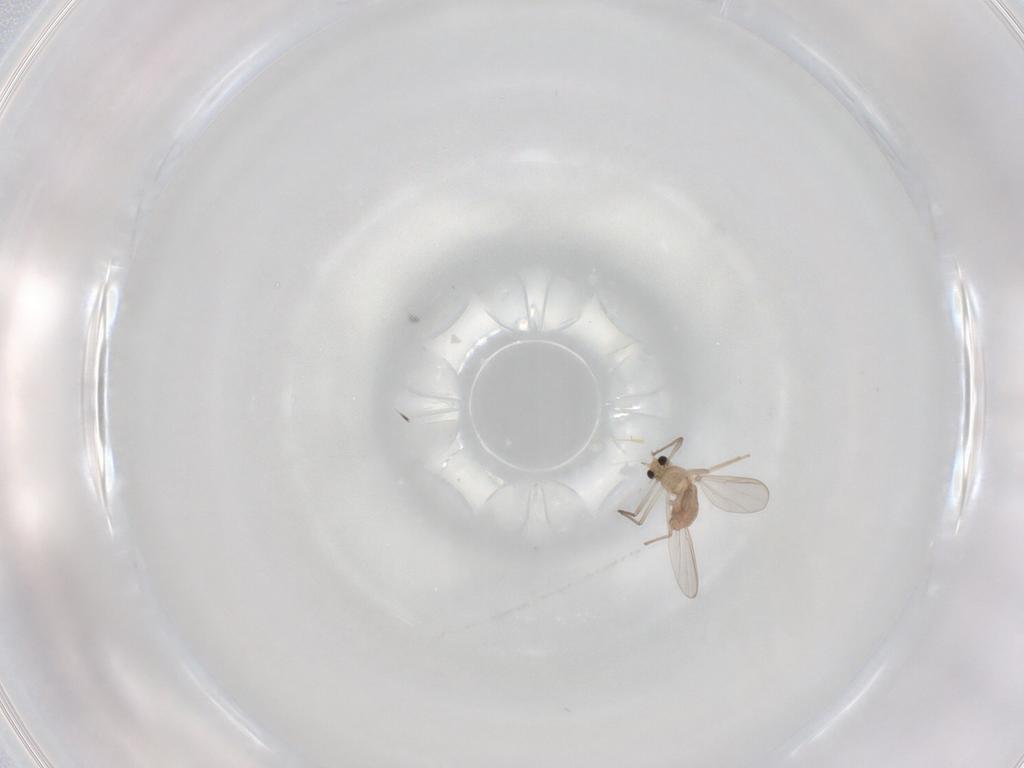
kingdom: Animalia
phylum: Arthropoda
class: Insecta
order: Diptera
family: Chironomidae
